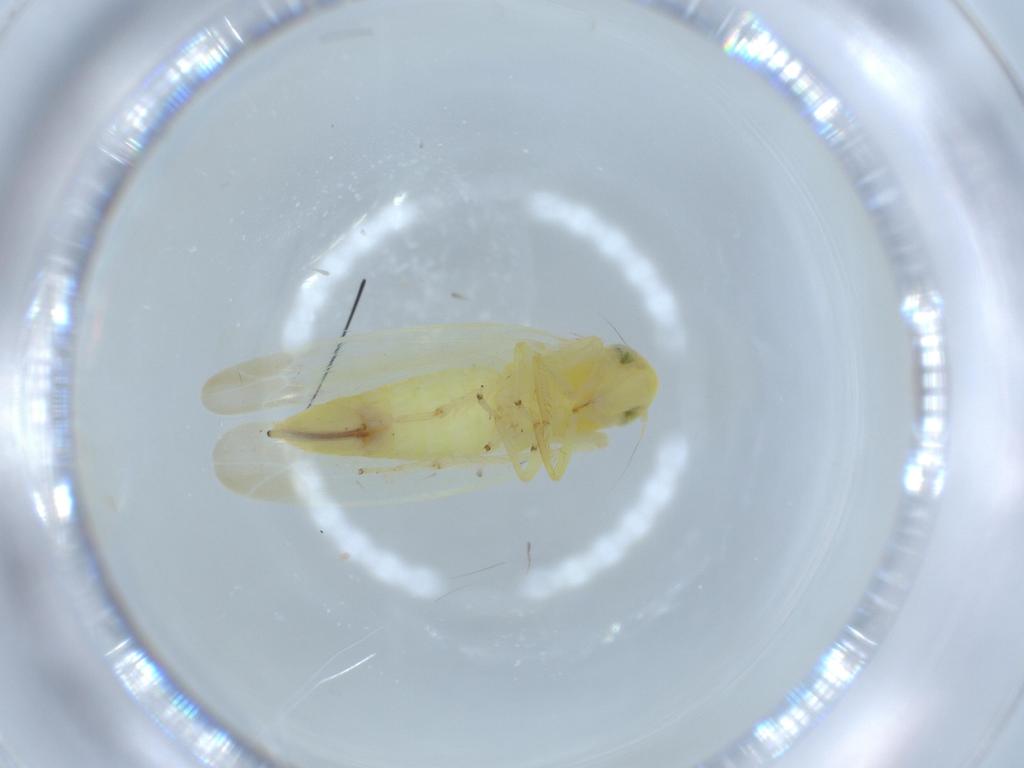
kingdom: Animalia
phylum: Arthropoda
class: Insecta
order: Hemiptera
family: Cicadellidae
